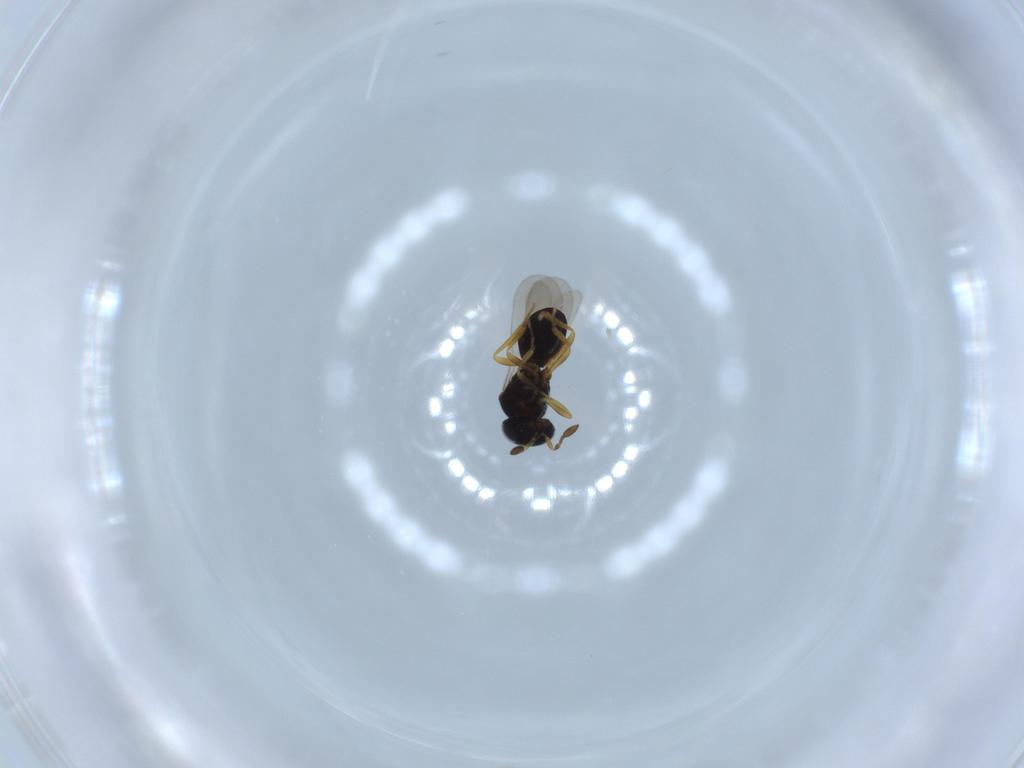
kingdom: Animalia
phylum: Arthropoda
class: Insecta
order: Hymenoptera
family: Scelionidae
